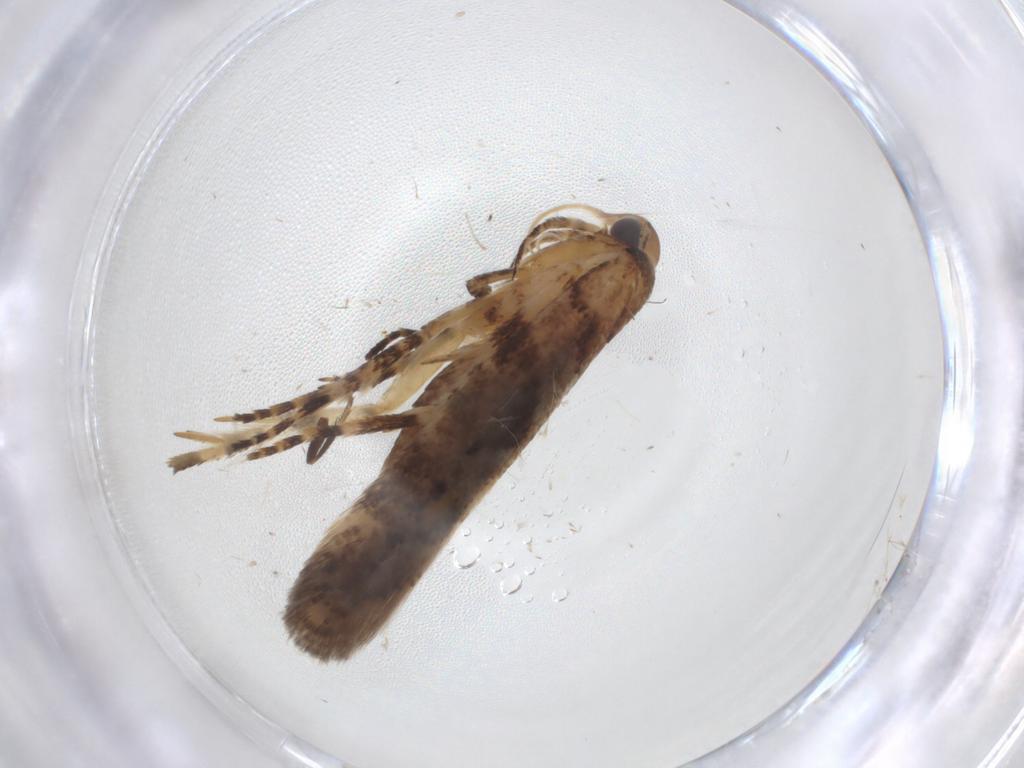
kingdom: Animalia
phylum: Arthropoda
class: Insecta
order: Lepidoptera
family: Gelechiidae
